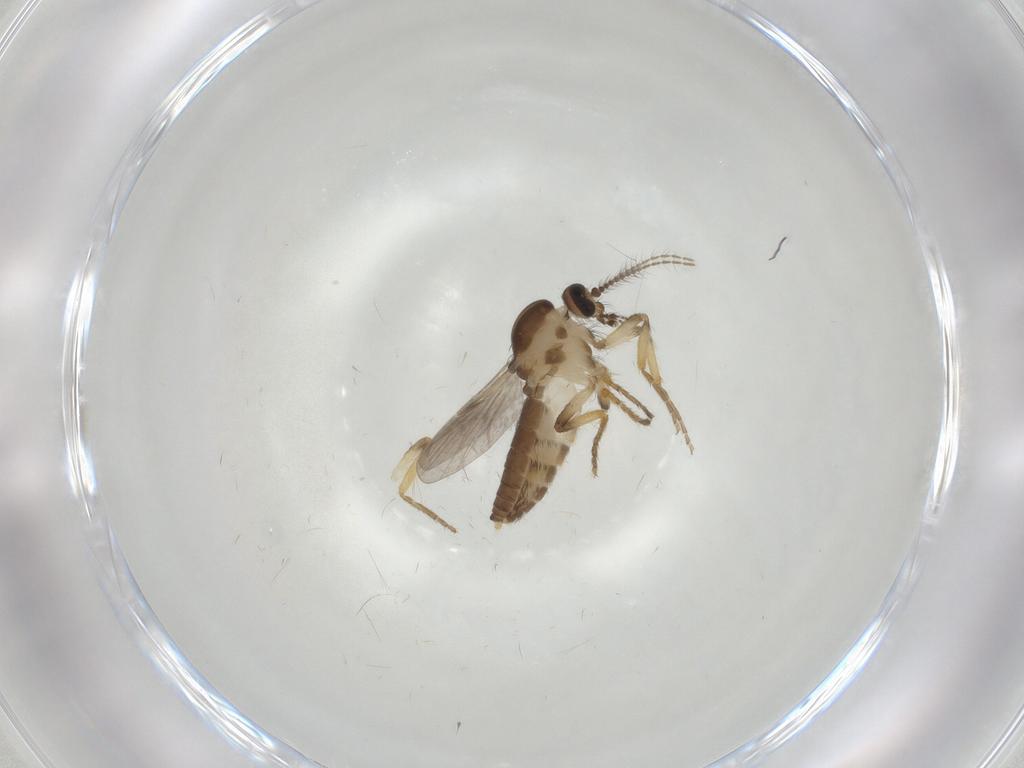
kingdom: Animalia
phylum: Arthropoda
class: Insecta
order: Diptera
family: Ceratopogonidae
